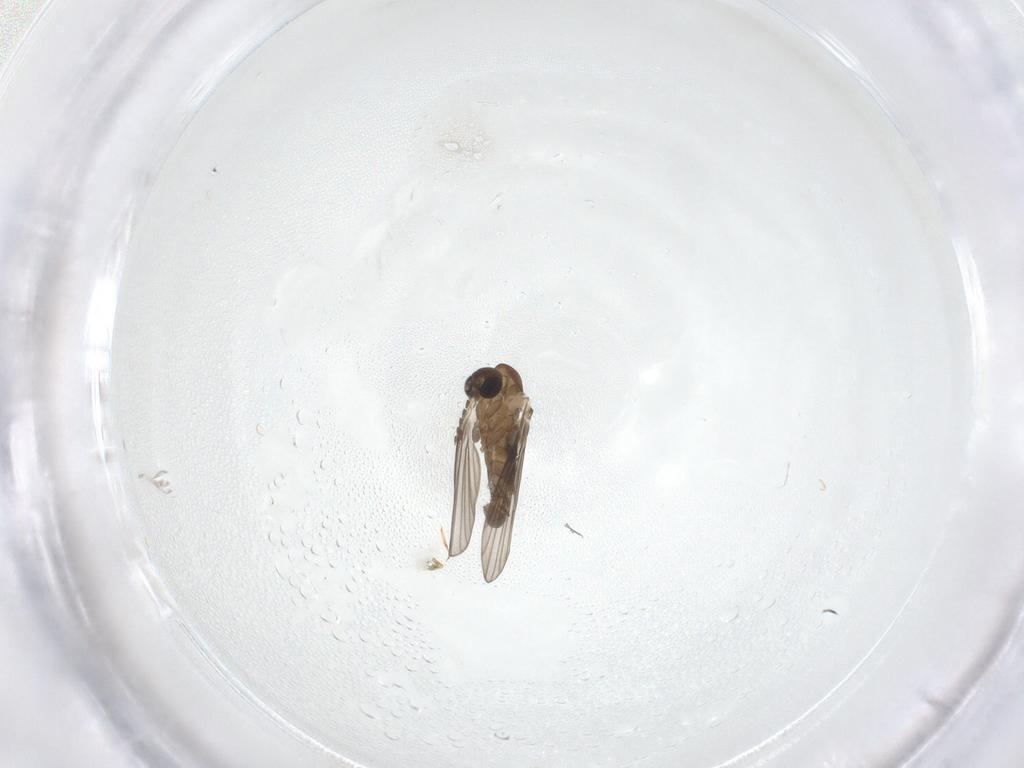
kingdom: Animalia
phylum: Arthropoda
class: Insecta
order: Diptera
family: Psychodidae
